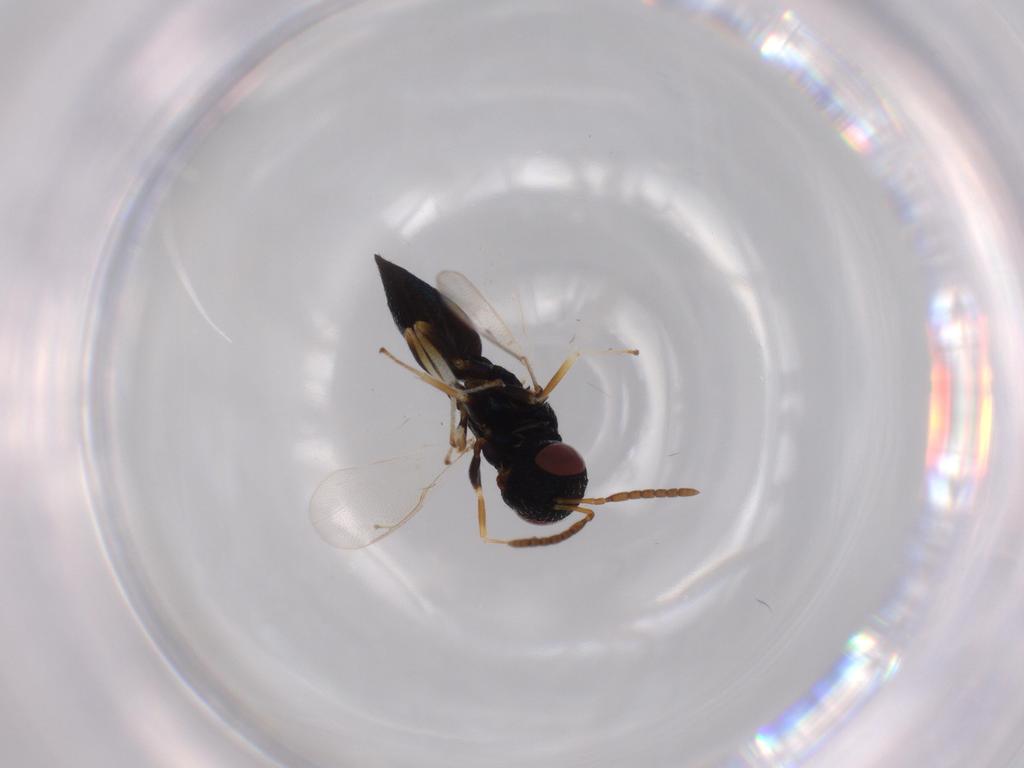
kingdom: Animalia
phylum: Arthropoda
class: Insecta
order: Hymenoptera
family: Pteromalidae
